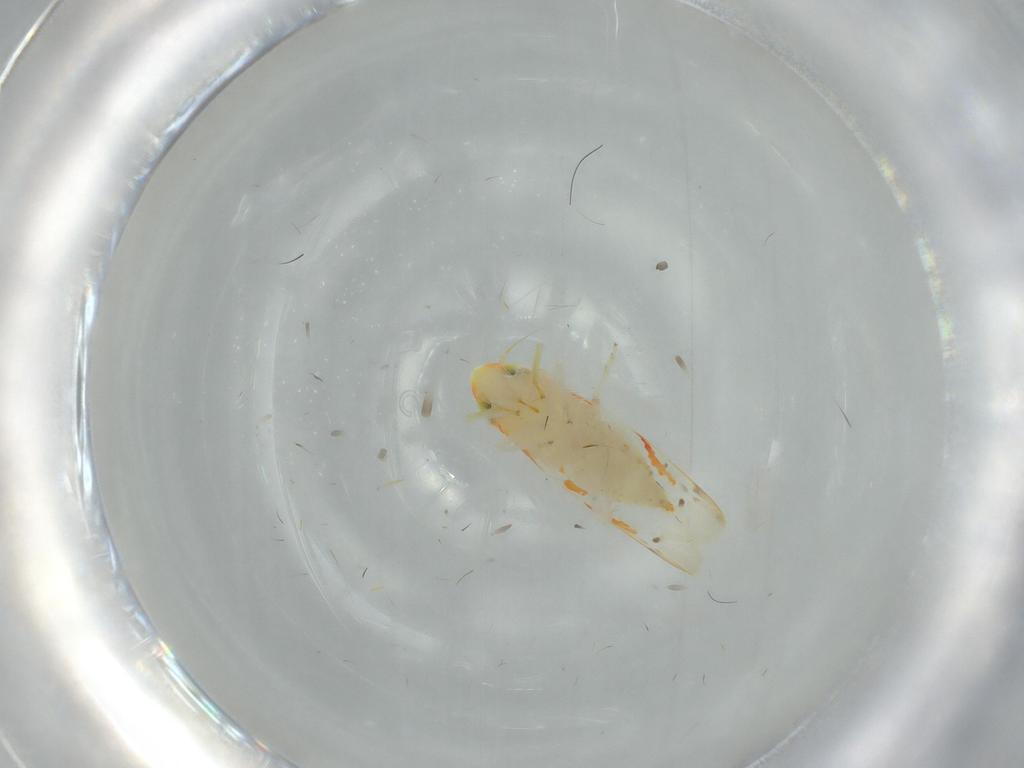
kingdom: Animalia
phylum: Arthropoda
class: Insecta
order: Hemiptera
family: Cicadellidae
